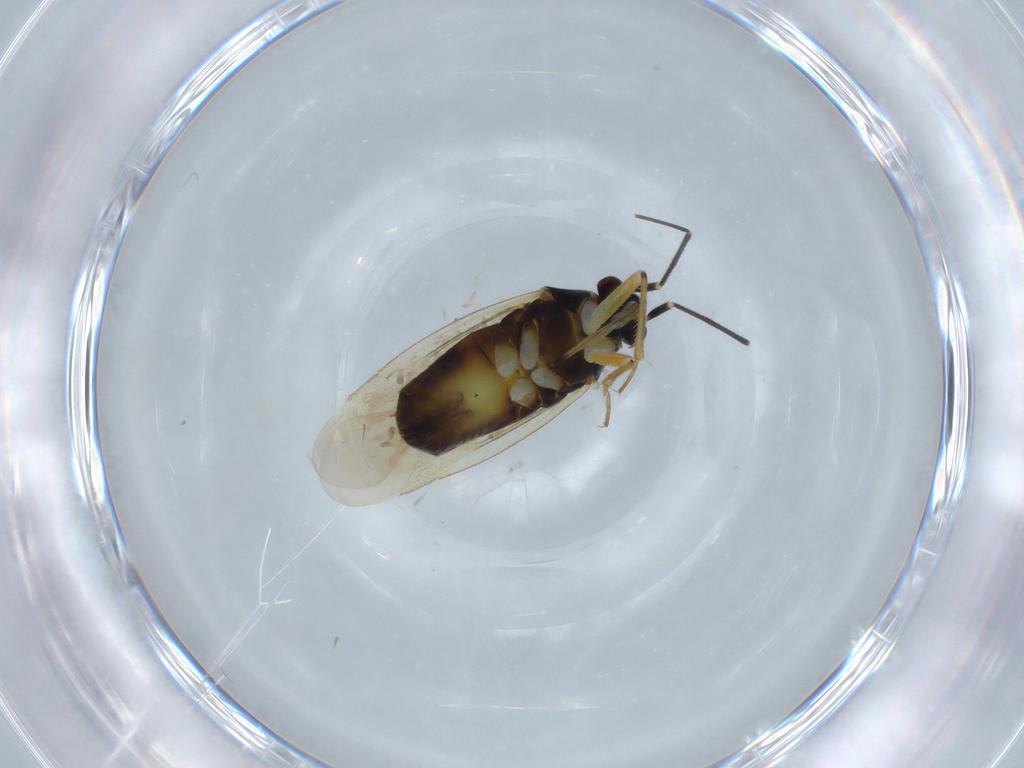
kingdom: Animalia
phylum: Arthropoda
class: Insecta
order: Hemiptera
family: Miridae
